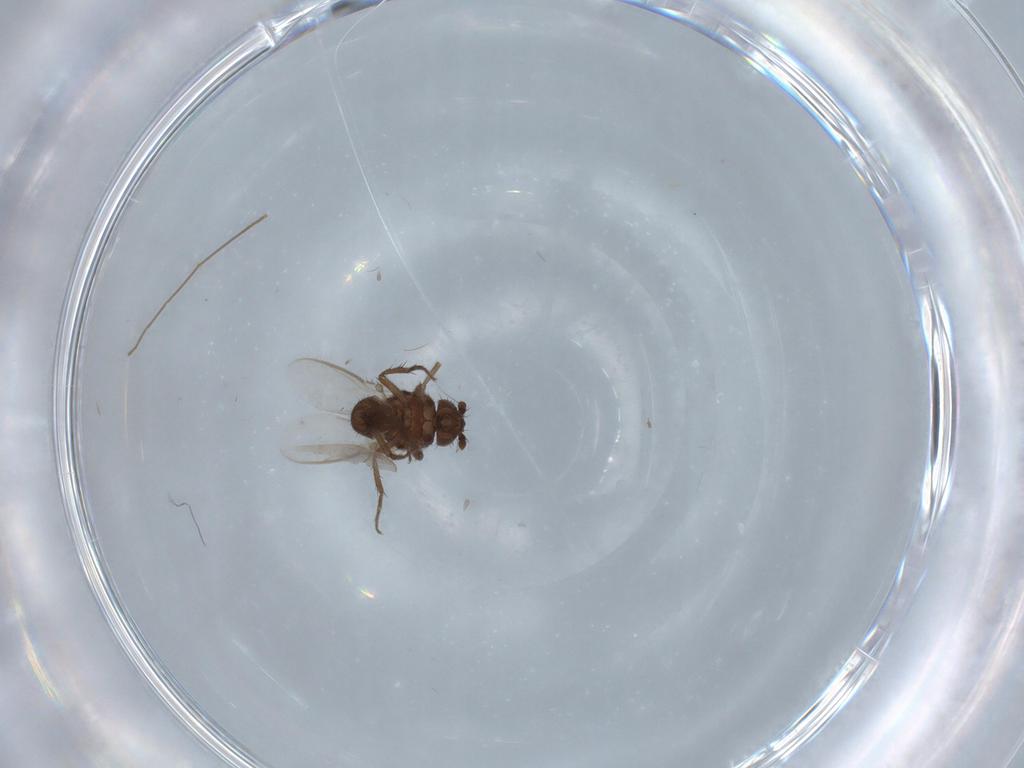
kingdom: Animalia
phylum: Arthropoda
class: Insecta
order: Diptera
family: Sphaeroceridae
